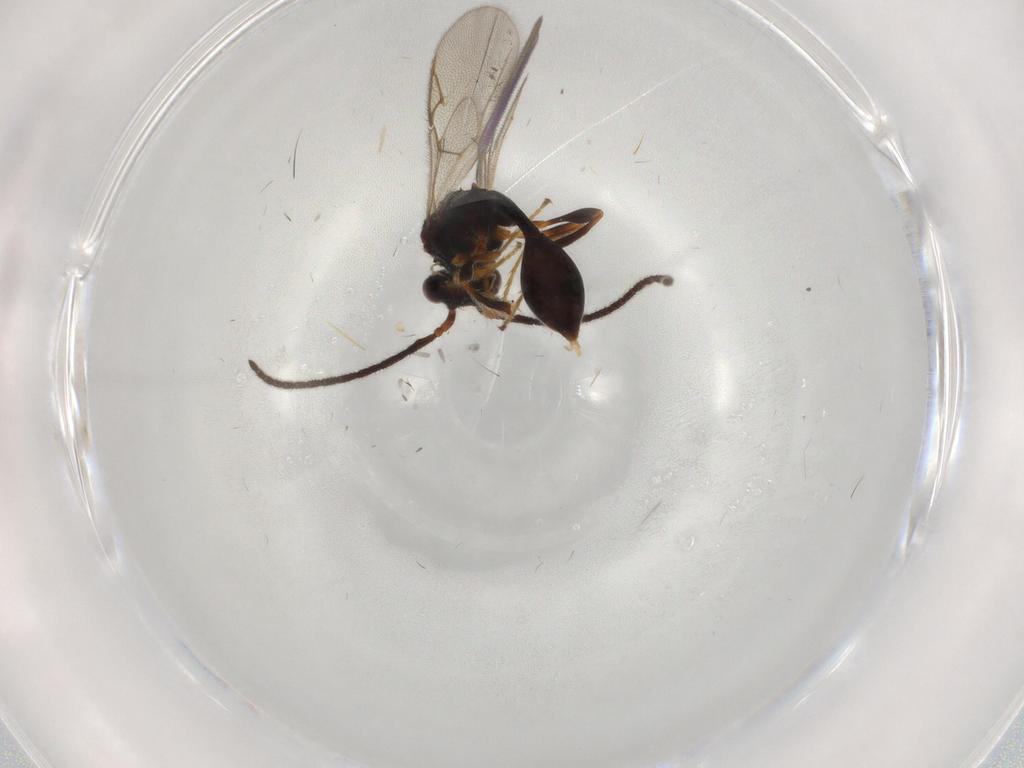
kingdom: Animalia
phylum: Arthropoda
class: Insecta
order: Hymenoptera
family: Diapriidae
